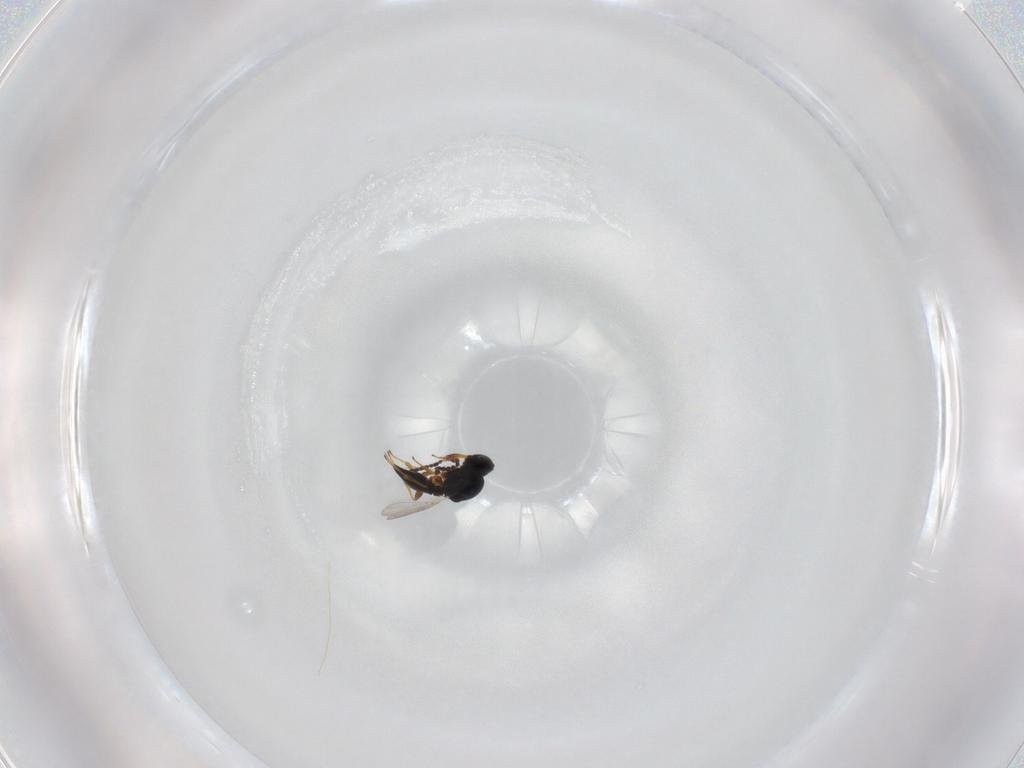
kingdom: Animalia
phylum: Arthropoda
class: Insecta
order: Hymenoptera
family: Platygastridae
